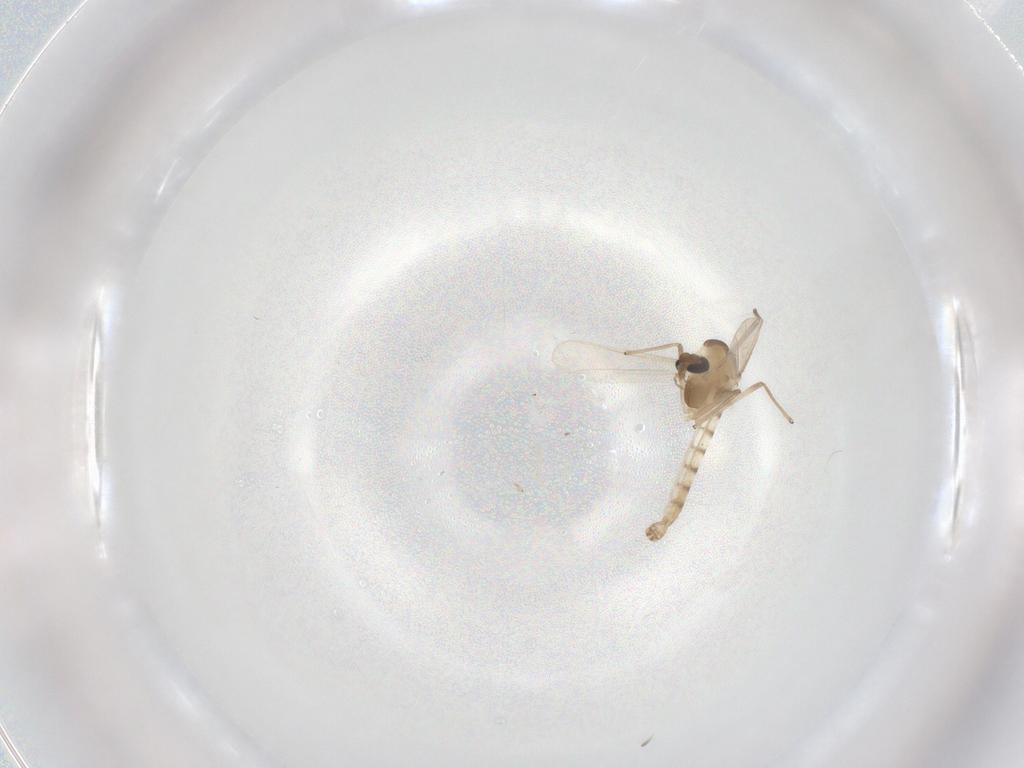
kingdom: Animalia
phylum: Arthropoda
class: Insecta
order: Diptera
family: Chironomidae
